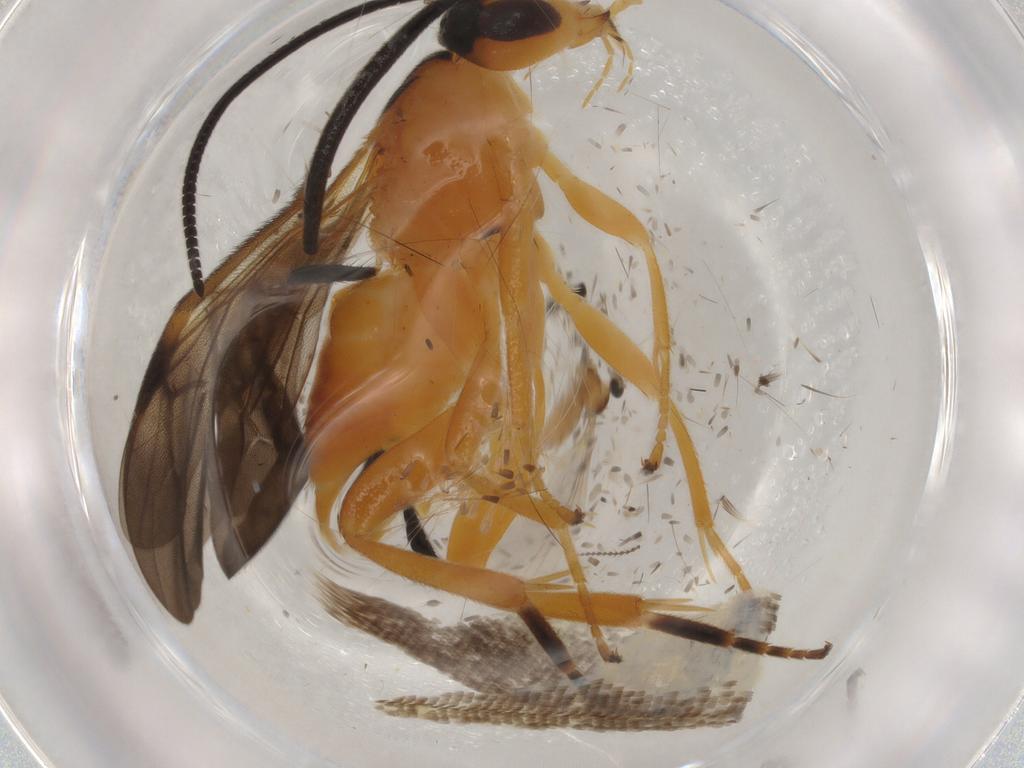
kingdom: Animalia
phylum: Arthropoda
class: Insecta
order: Hymenoptera
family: Braconidae
